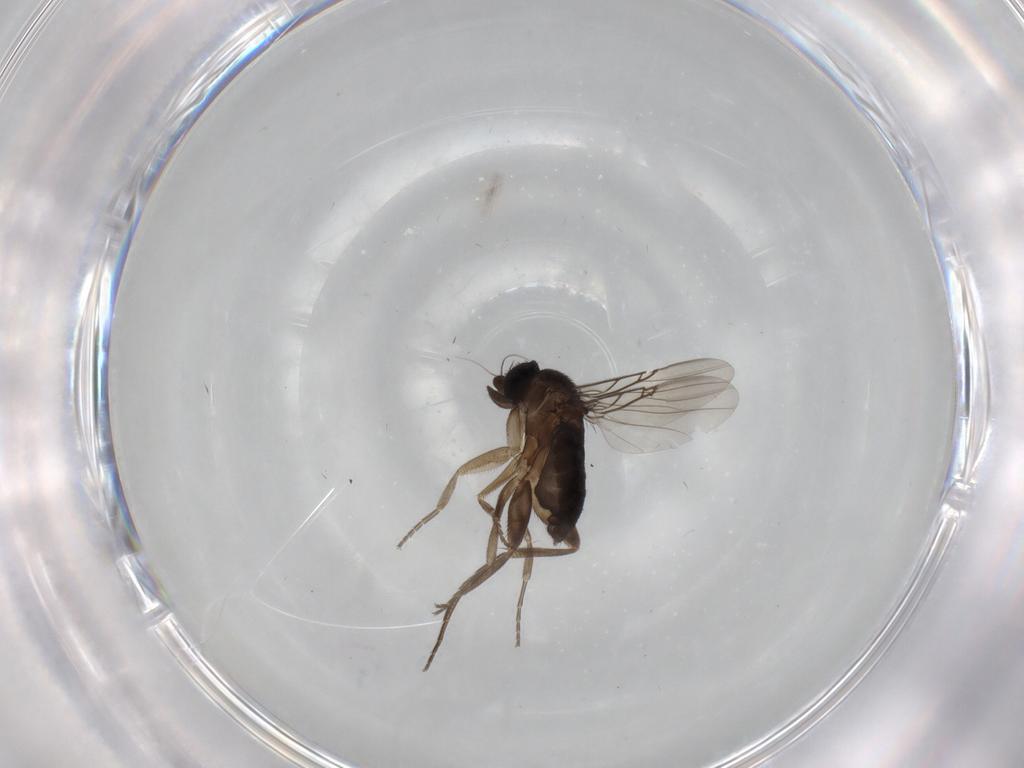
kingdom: Animalia
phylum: Arthropoda
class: Insecta
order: Diptera
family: Phoridae
